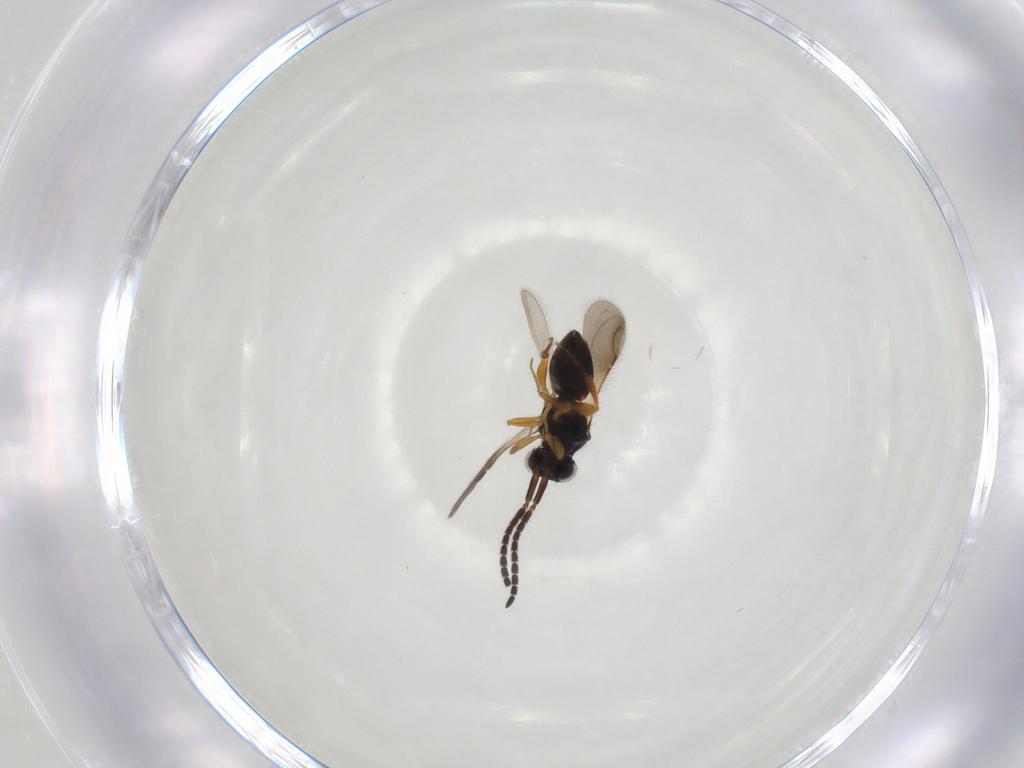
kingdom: Animalia
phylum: Arthropoda
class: Insecta
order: Hymenoptera
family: Ceraphronidae
